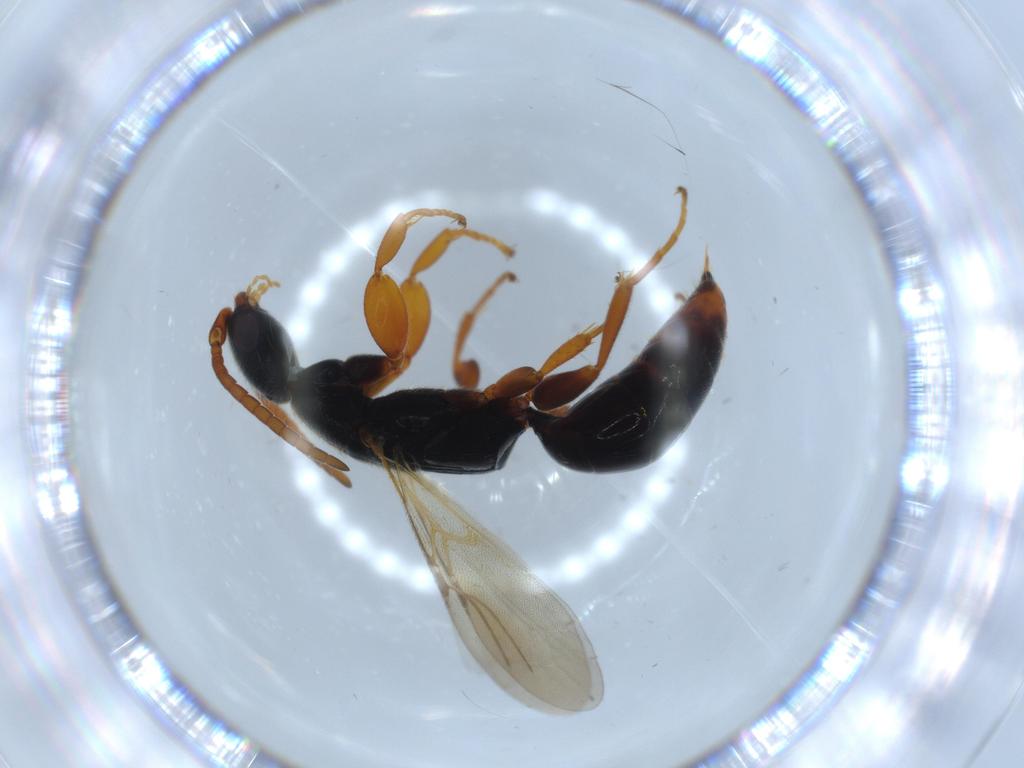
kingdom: Animalia
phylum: Arthropoda
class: Insecta
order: Hymenoptera
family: Bethylidae
